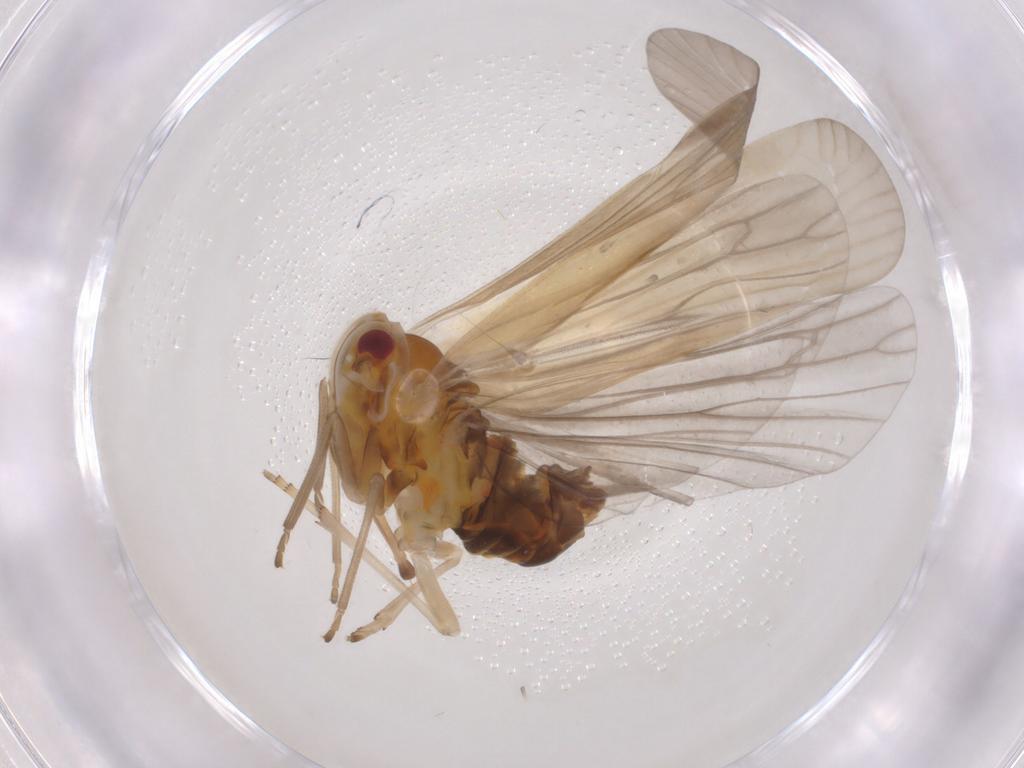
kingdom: Animalia
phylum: Arthropoda
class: Insecta
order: Hemiptera
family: Derbidae
